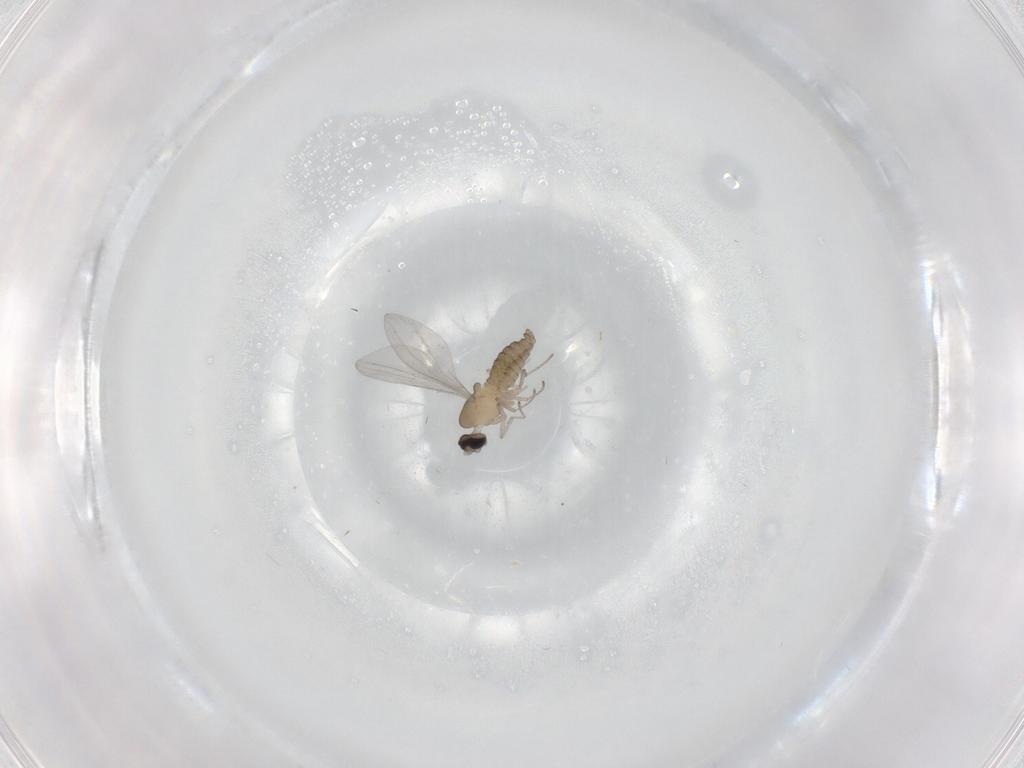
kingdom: Animalia
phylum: Arthropoda
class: Insecta
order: Diptera
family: Cecidomyiidae
